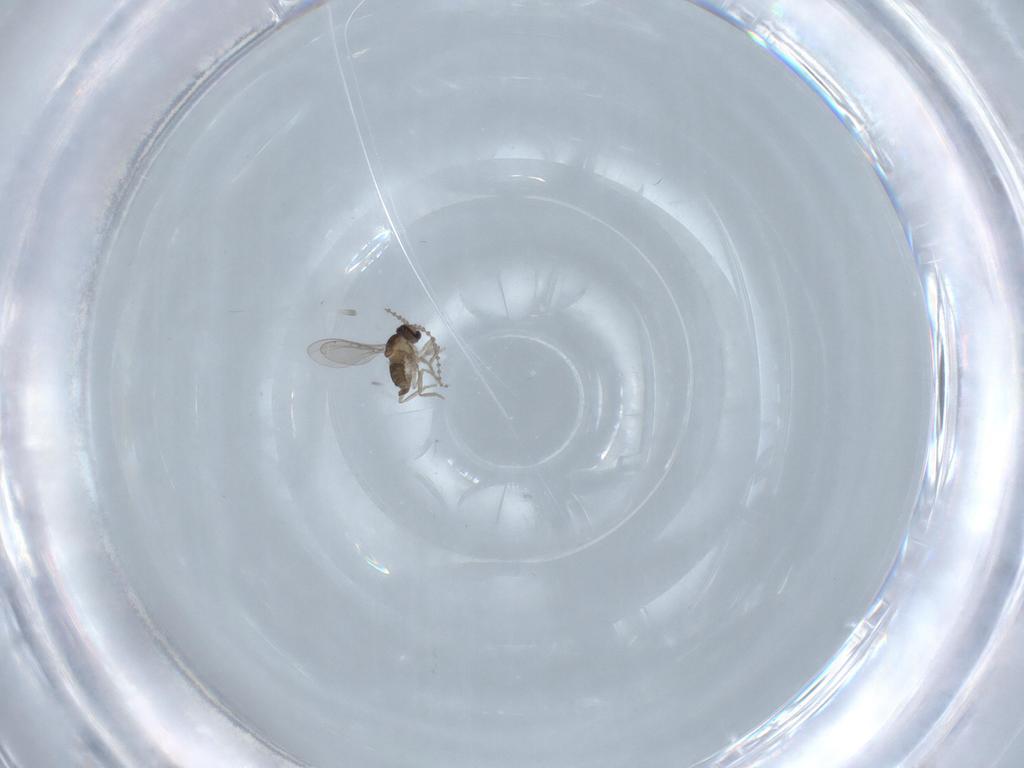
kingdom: Animalia
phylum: Arthropoda
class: Insecta
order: Diptera
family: Cecidomyiidae
